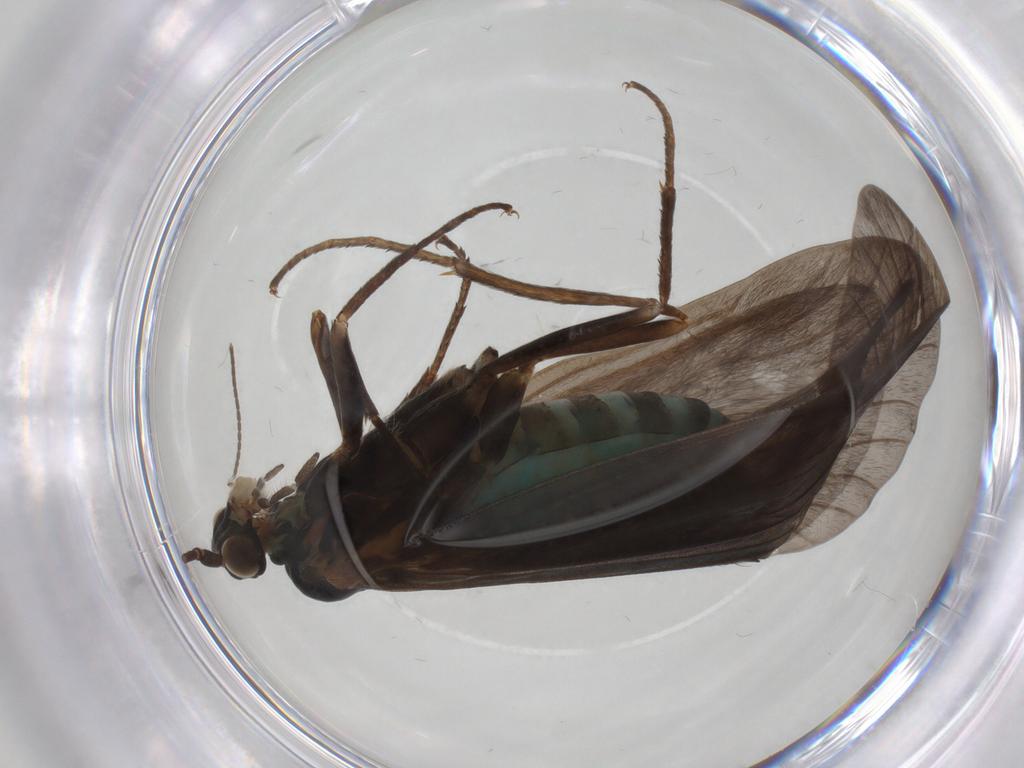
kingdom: Animalia
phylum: Arthropoda
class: Insecta
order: Trichoptera
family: Brachycentridae
